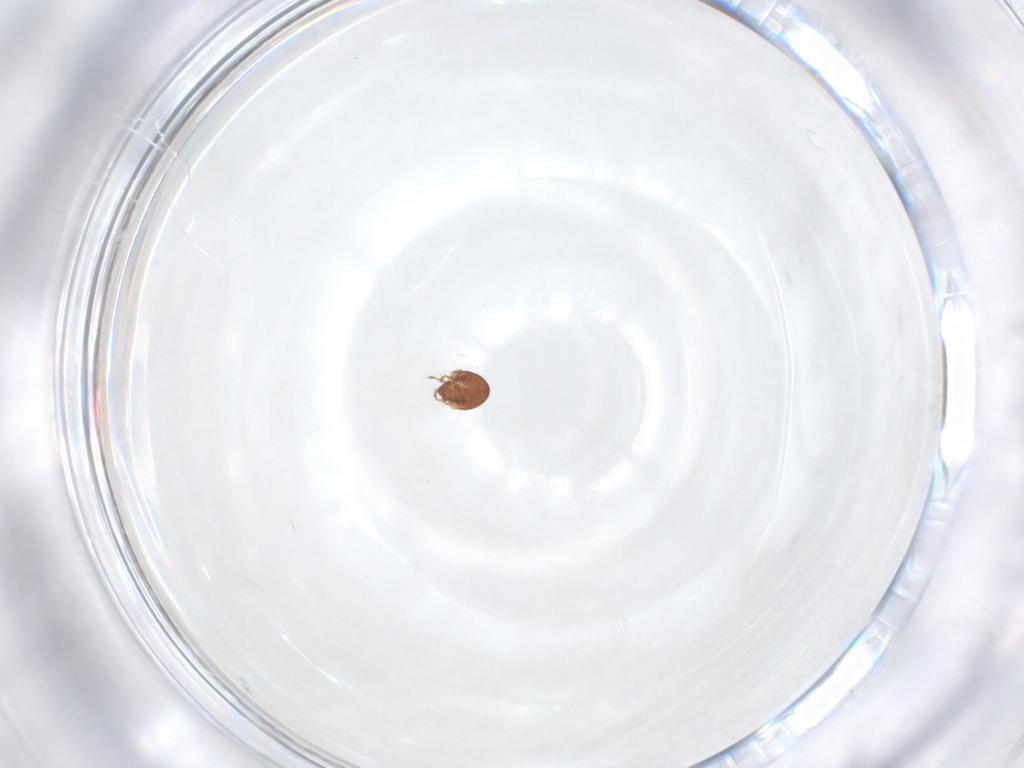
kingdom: Animalia
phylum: Arthropoda
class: Arachnida
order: Sarcoptiformes
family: Scheloribatidae
